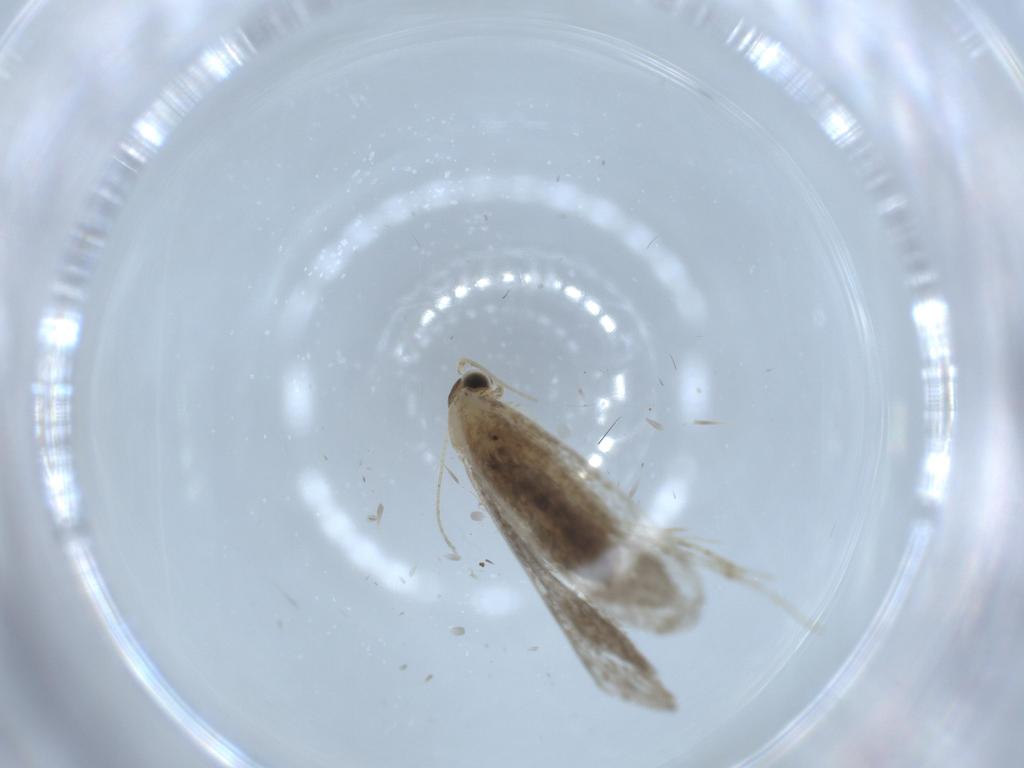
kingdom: Animalia
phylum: Arthropoda
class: Insecta
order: Lepidoptera
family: Tineidae
